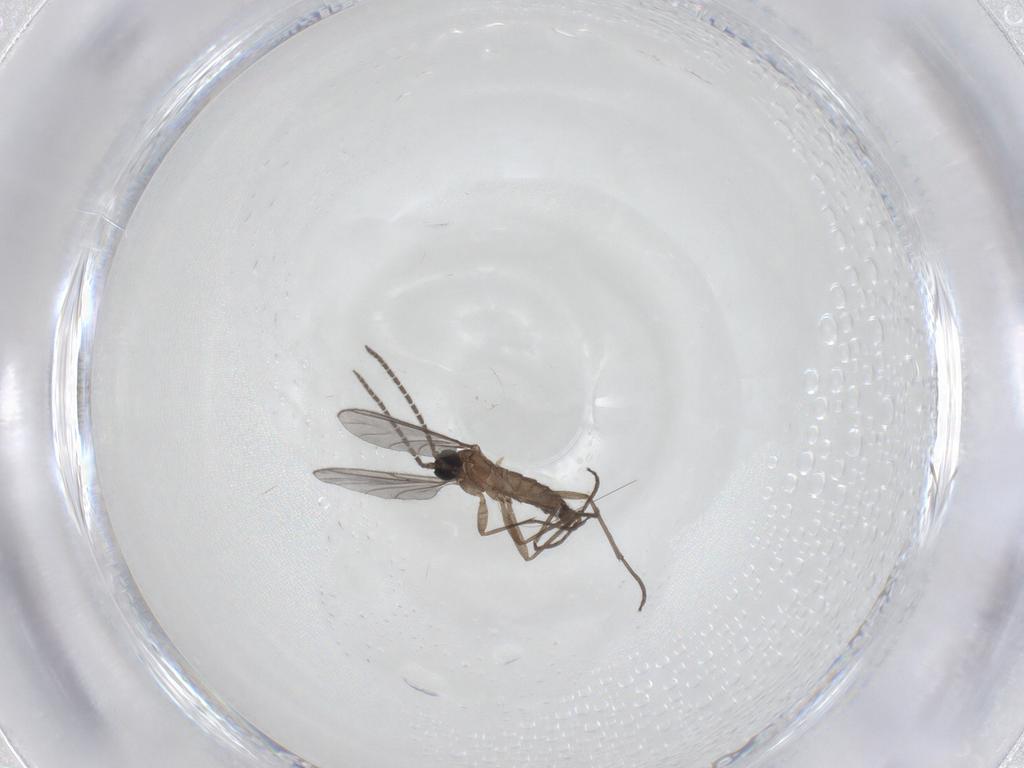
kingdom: Animalia
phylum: Arthropoda
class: Insecta
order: Diptera
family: Sciaridae
